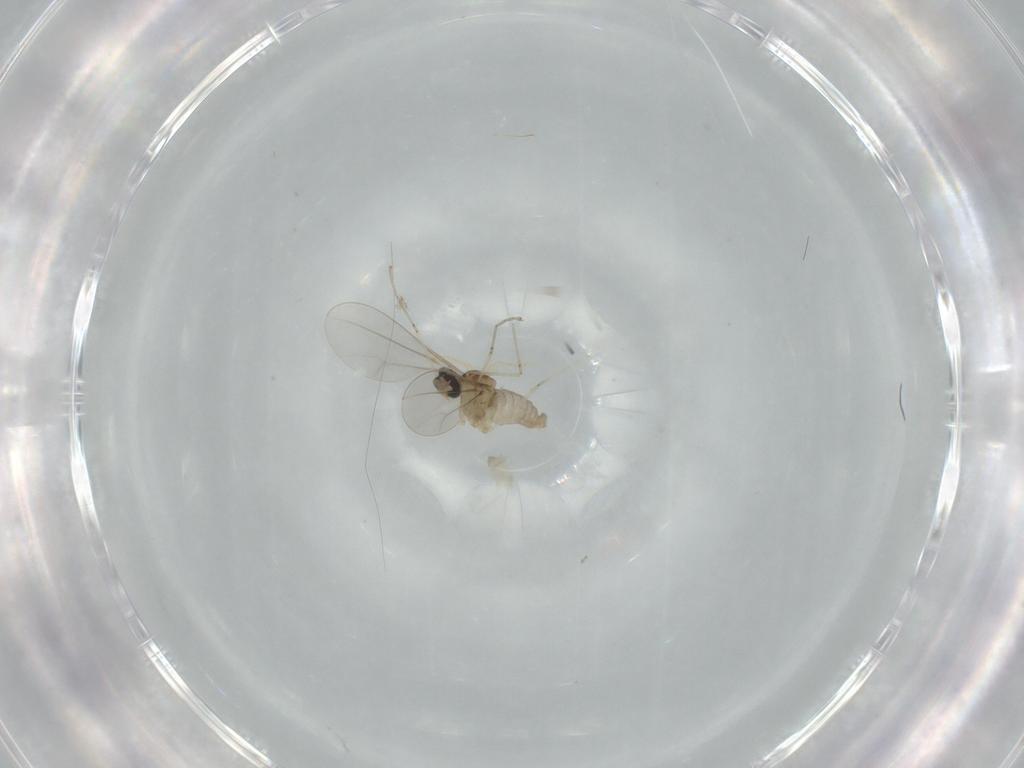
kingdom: Animalia
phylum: Arthropoda
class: Insecta
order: Diptera
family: Cecidomyiidae
